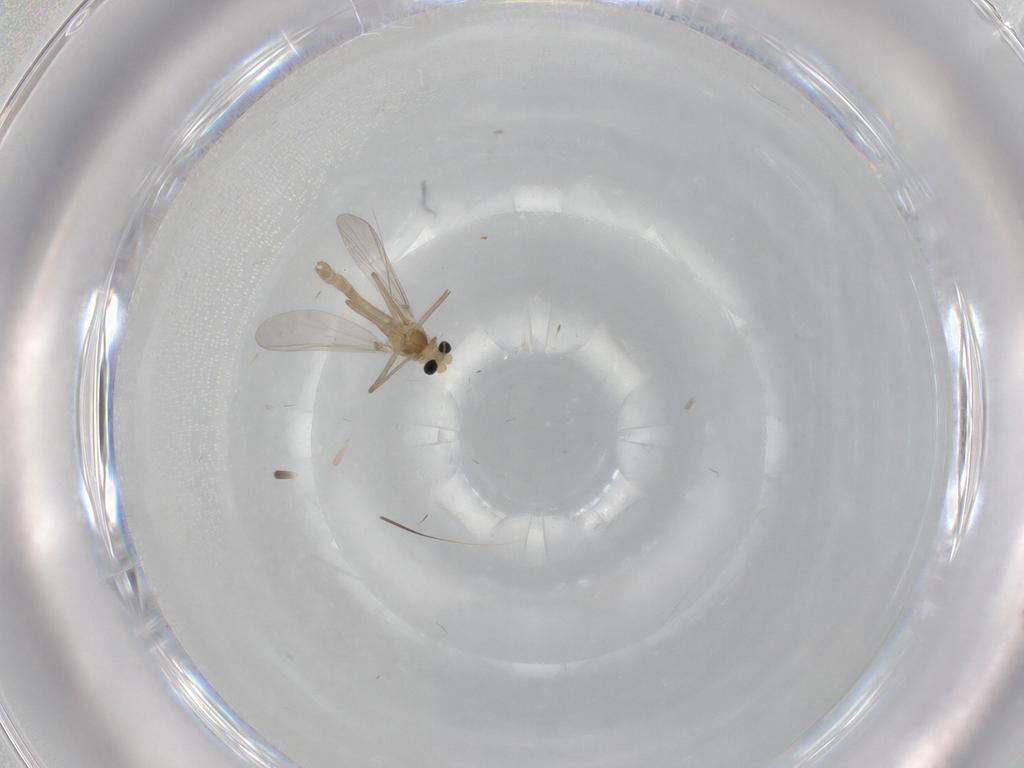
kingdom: Animalia
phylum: Arthropoda
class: Insecta
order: Diptera
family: Chironomidae
